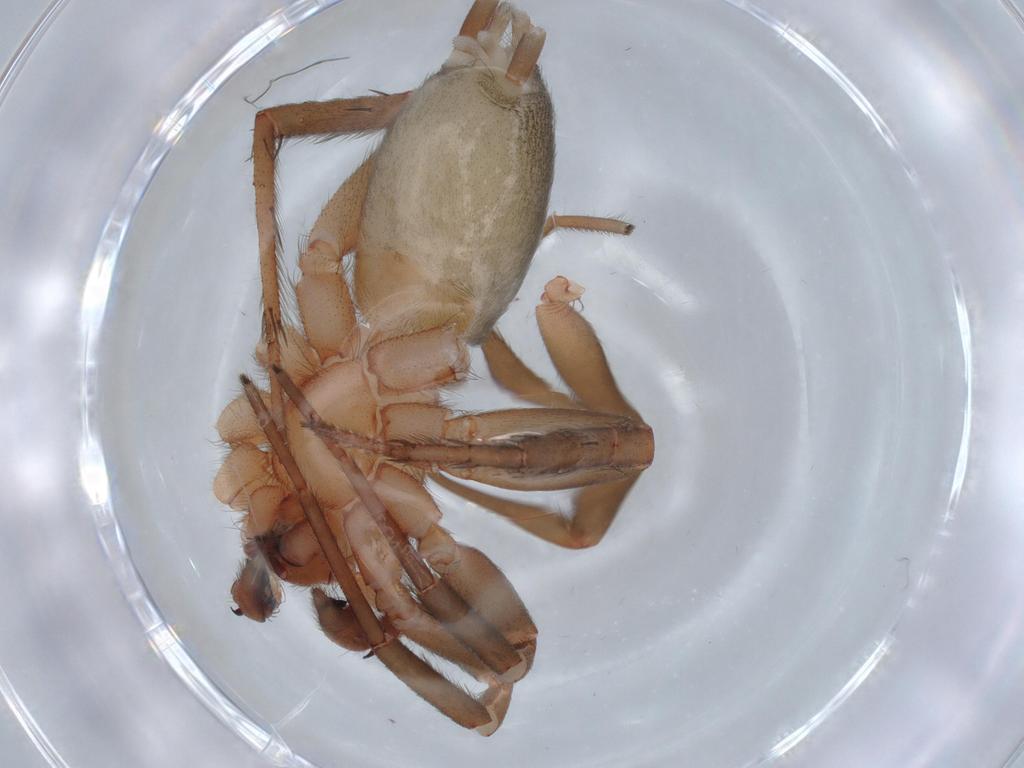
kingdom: Animalia
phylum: Arthropoda
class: Arachnida
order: Araneae
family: Gnaphosidae
